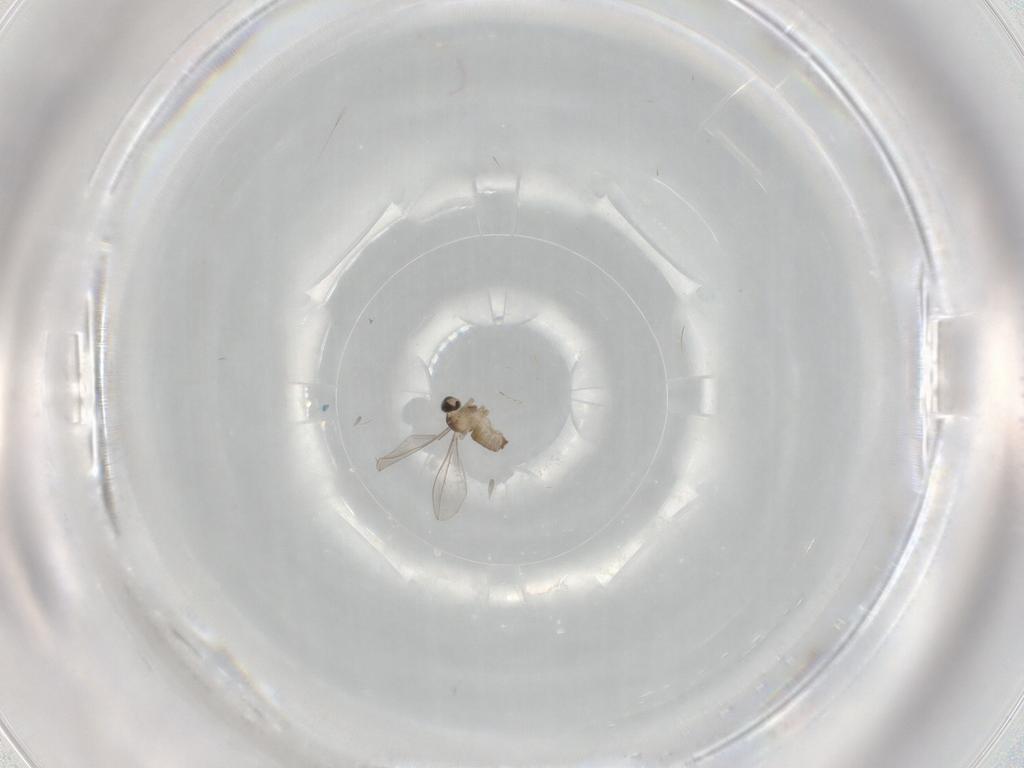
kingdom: Animalia
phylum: Arthropoda
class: Insecta
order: Diptera
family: Cecidomyiidae
